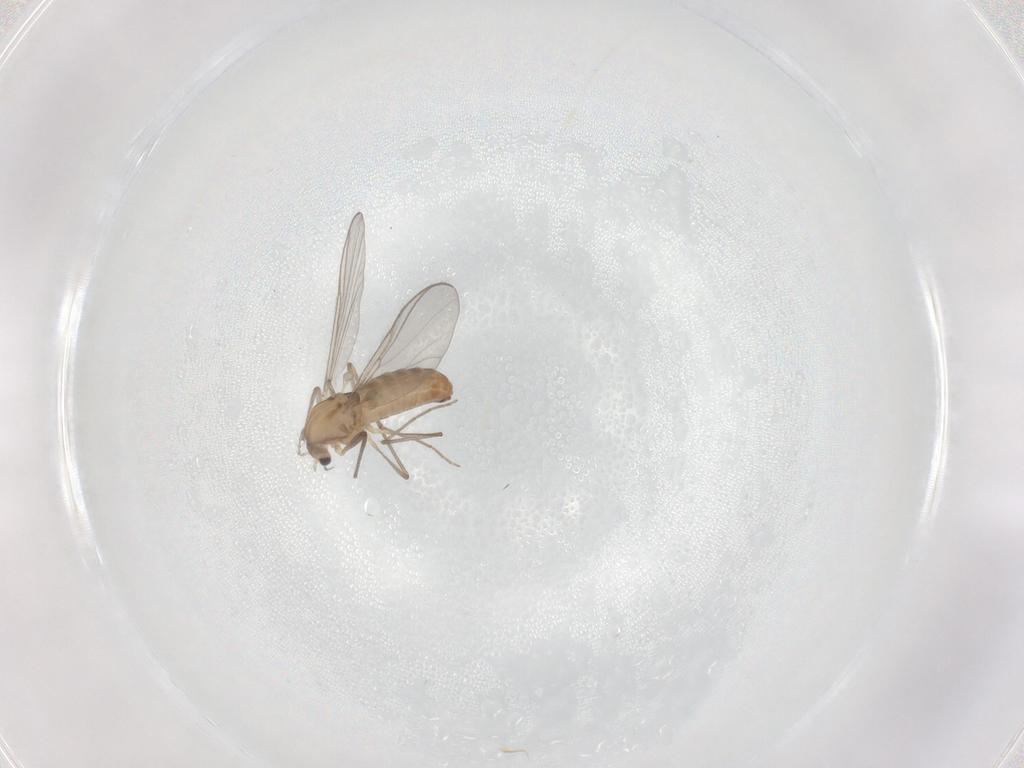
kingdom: Animalia
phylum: Arthropoda
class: Insecta
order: Diptera
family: Chironomidae
